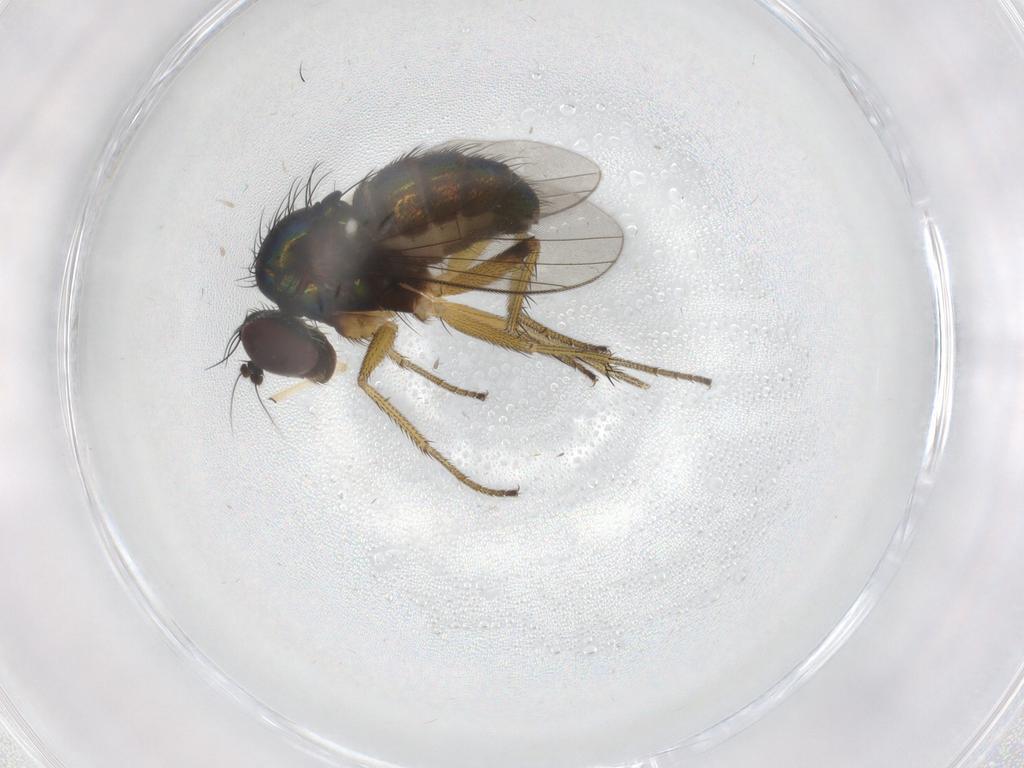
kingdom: Animalia
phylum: Arthropoda
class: Insecta
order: Diptera
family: Dolichopodidae
